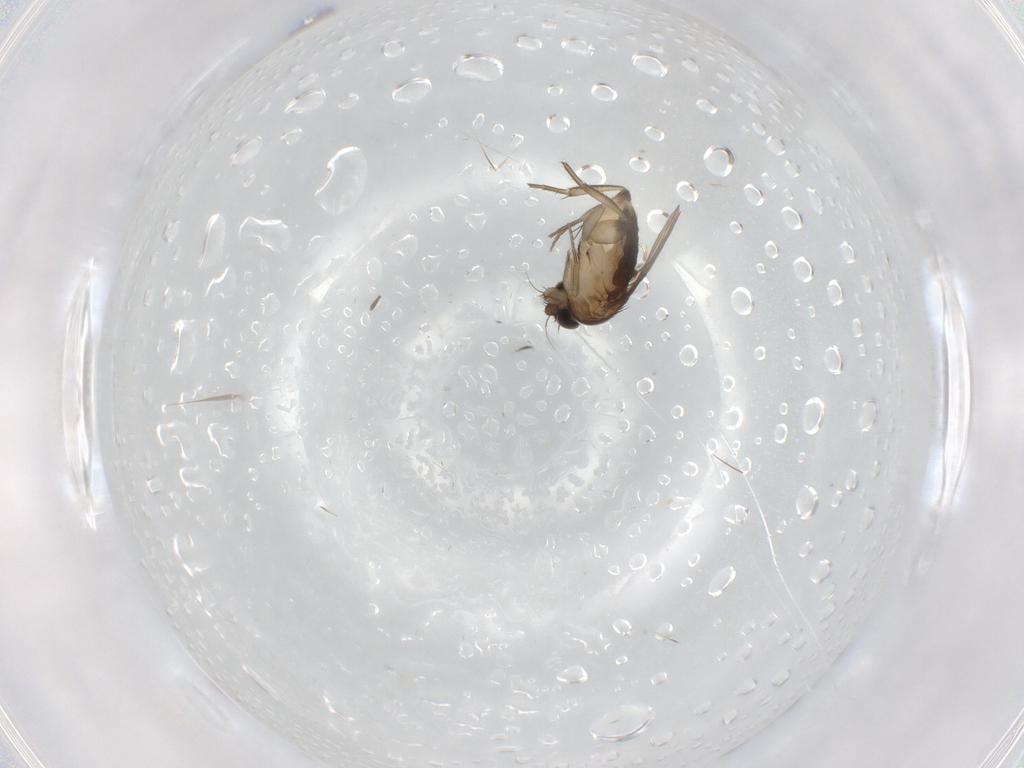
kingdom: Animalia
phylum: Arthropoda
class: Insecta
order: Diptera
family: Phoridae
